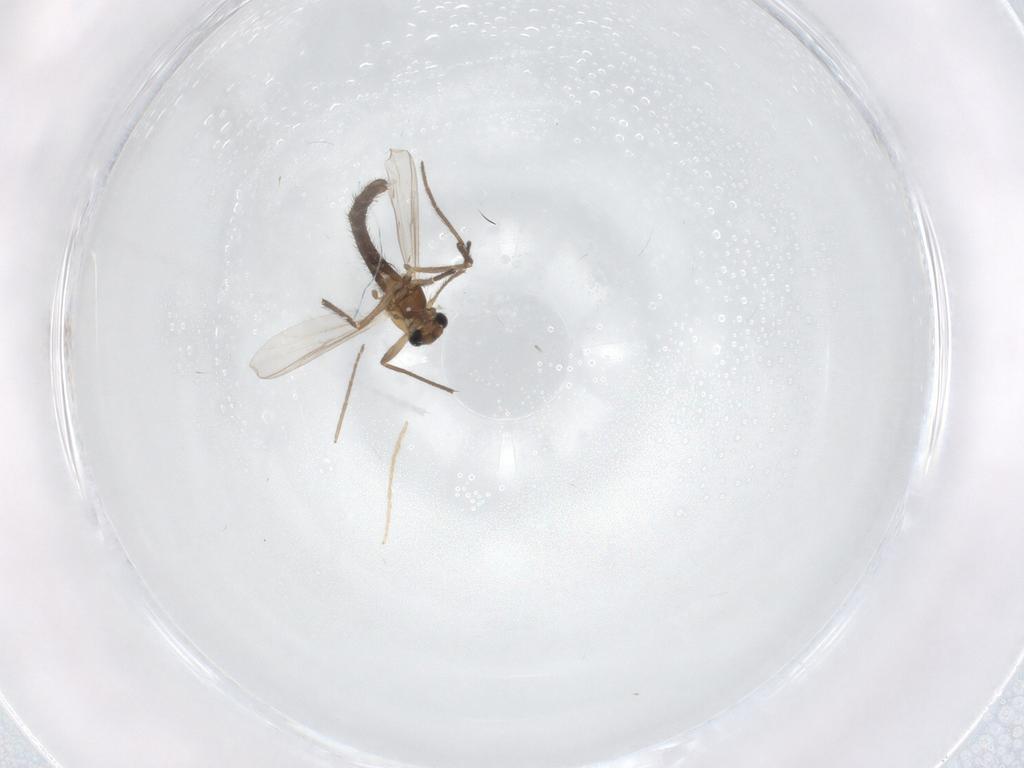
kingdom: Animalia
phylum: Arthropoda
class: Insecta
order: Diptera
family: Chironomidae
